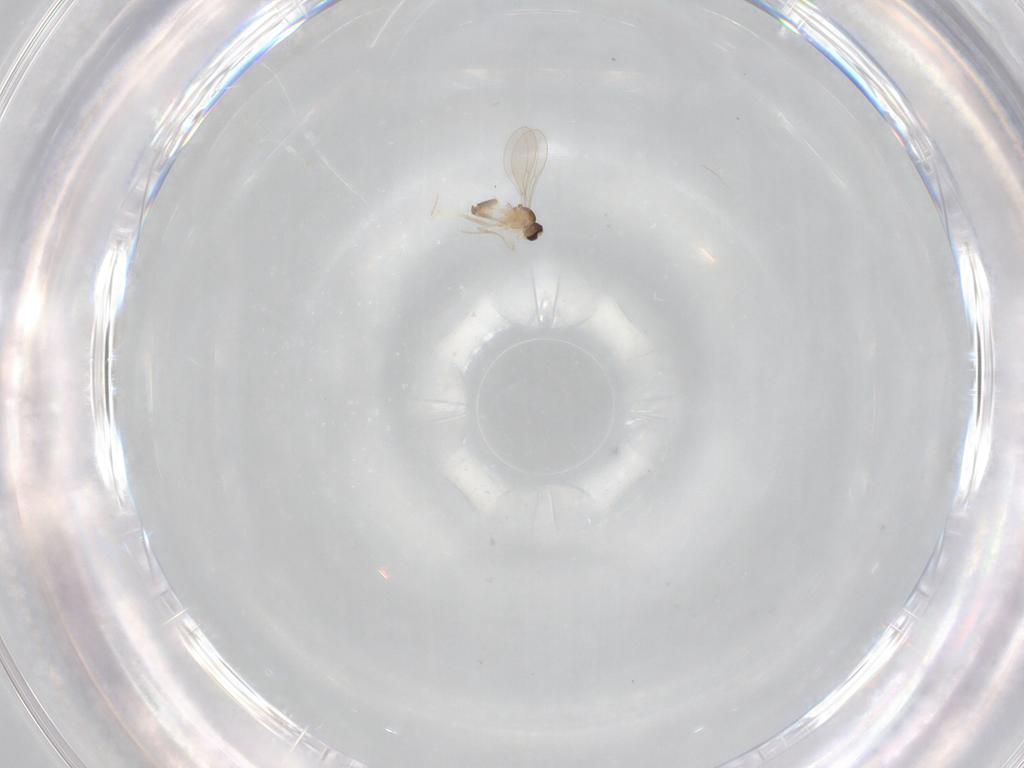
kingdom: Animalia
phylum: Arthropoda
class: Insecta
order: Diptera
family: Cecidomyiidae
